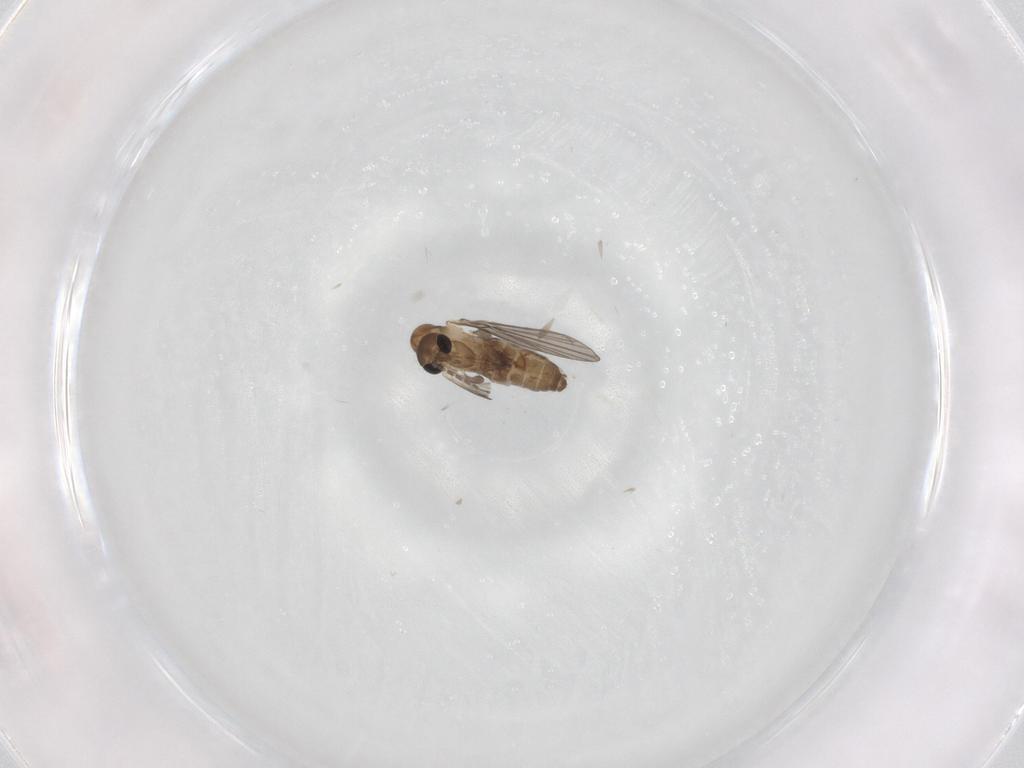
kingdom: Animalia
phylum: Arthropoda
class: Insecta
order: Diptera
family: Psychodidae
